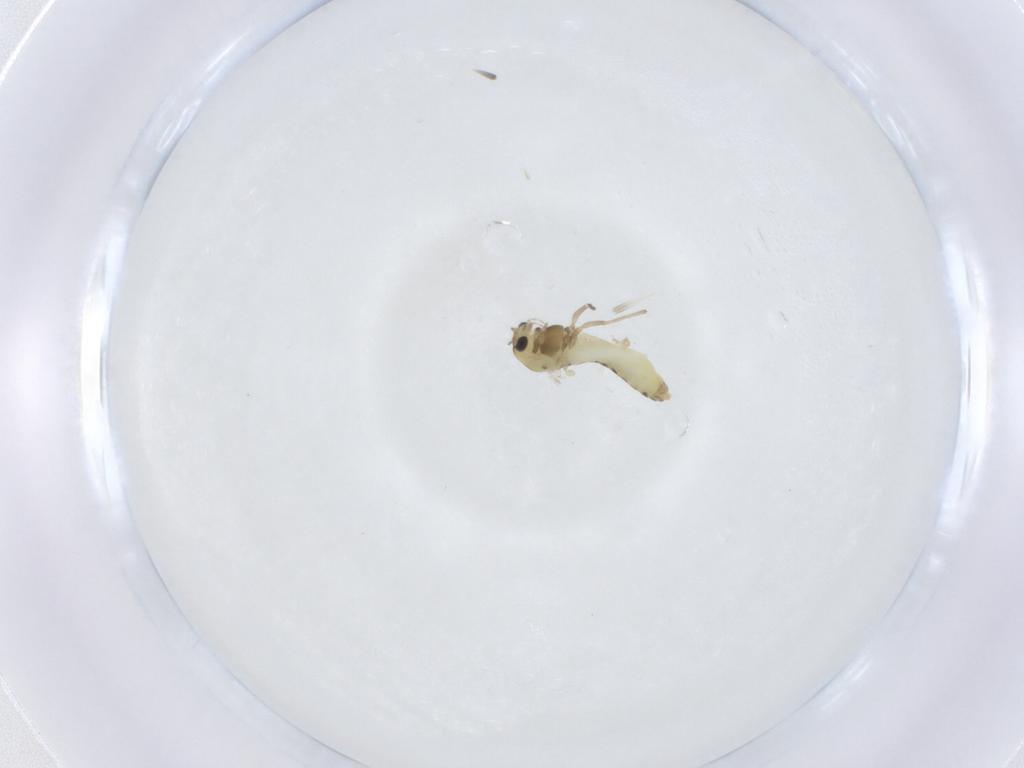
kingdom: Animalia
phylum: Arthropoda
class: Insecta
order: Diptera
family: Chironomidae
